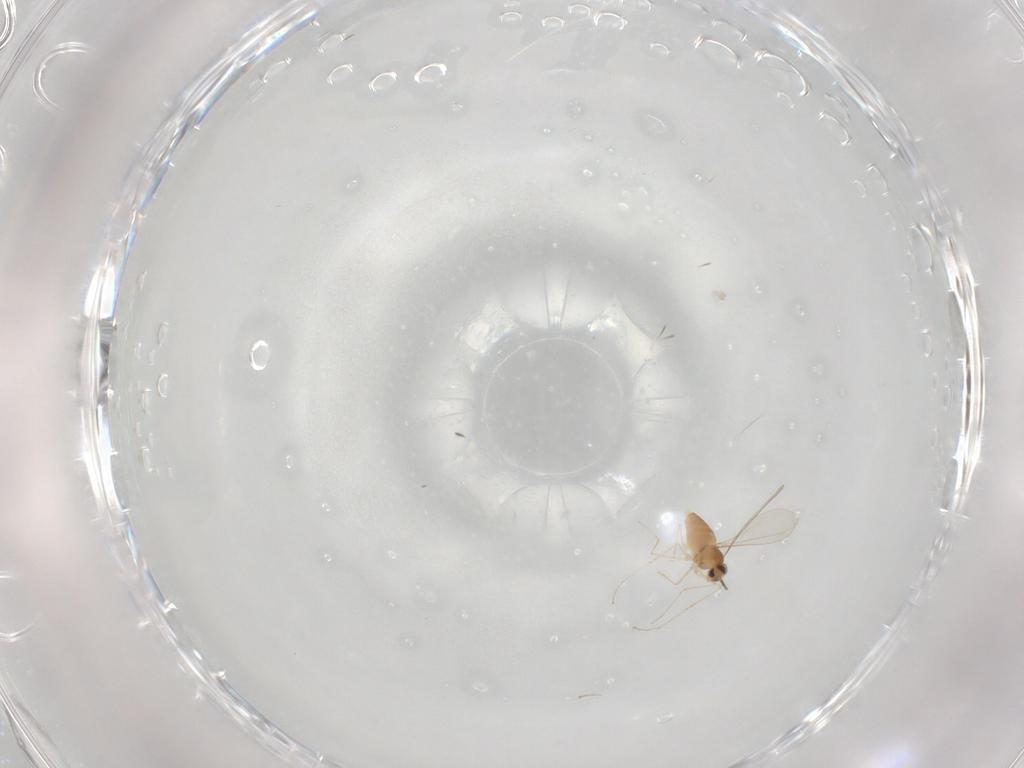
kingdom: Animalia
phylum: Arthropoda
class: Insecta
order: Diptera
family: Cecidomyiidae
